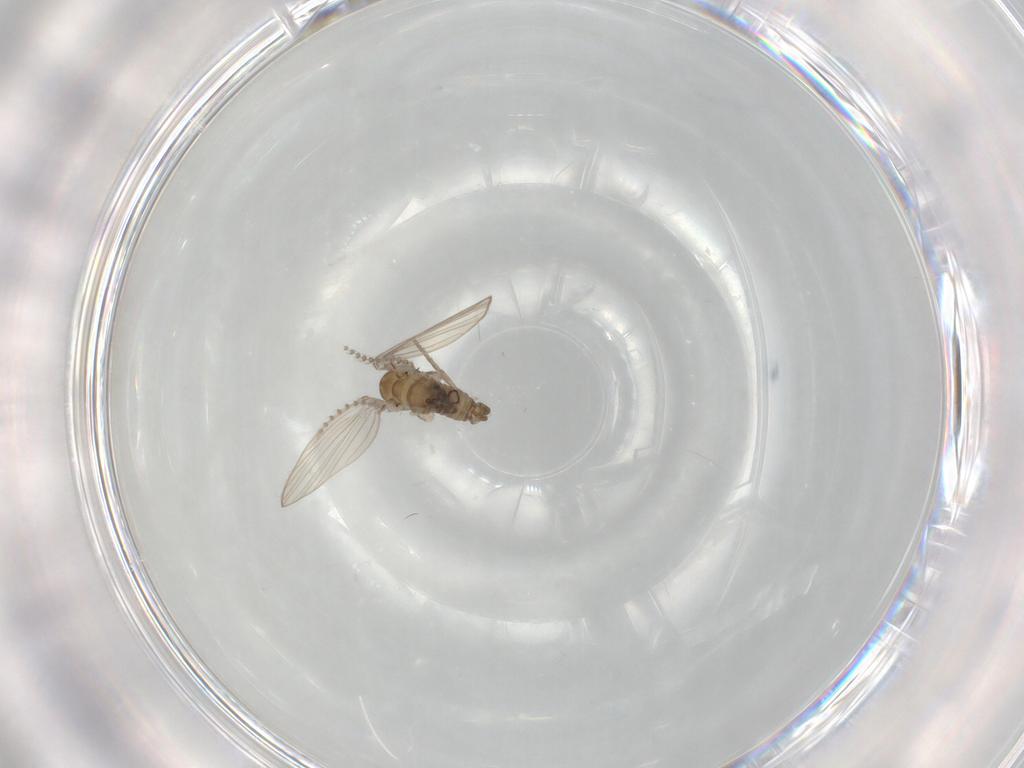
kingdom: Animalia
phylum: Arthropoda
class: Insecta
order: Diptera
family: Psychodidae
